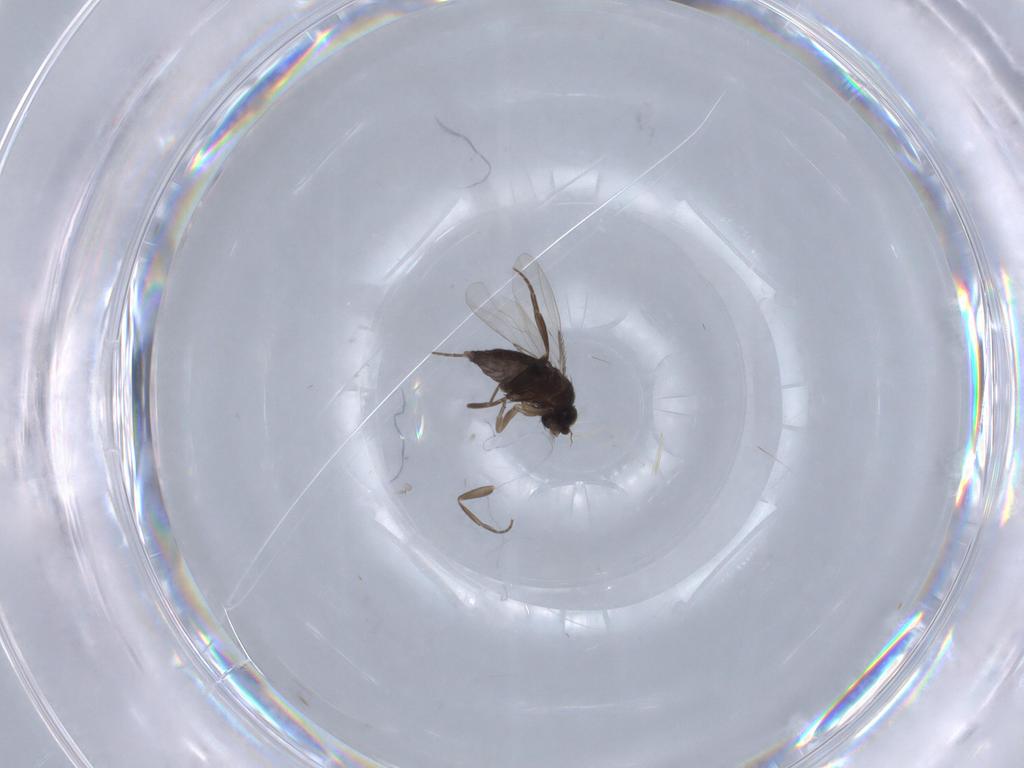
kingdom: Animalia
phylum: Arthropoda
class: Insecta
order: Diptera
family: Phoridae
